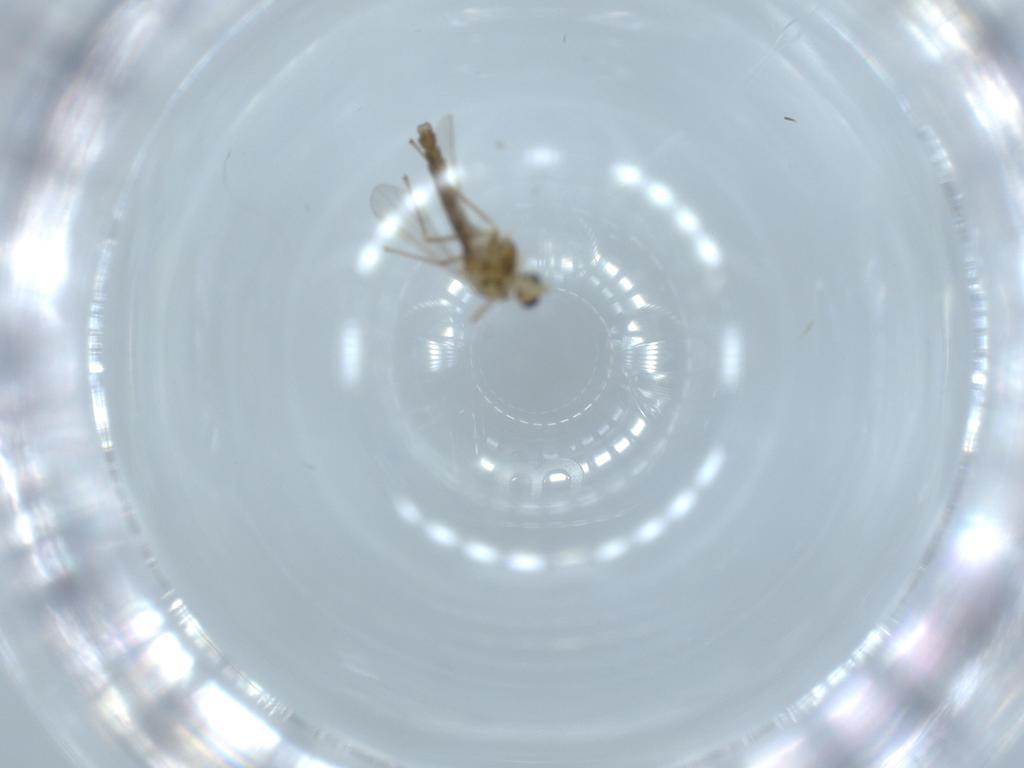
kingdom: Animalia
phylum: Arthropoda
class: Insecta
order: Diptera
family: Chironomidae
